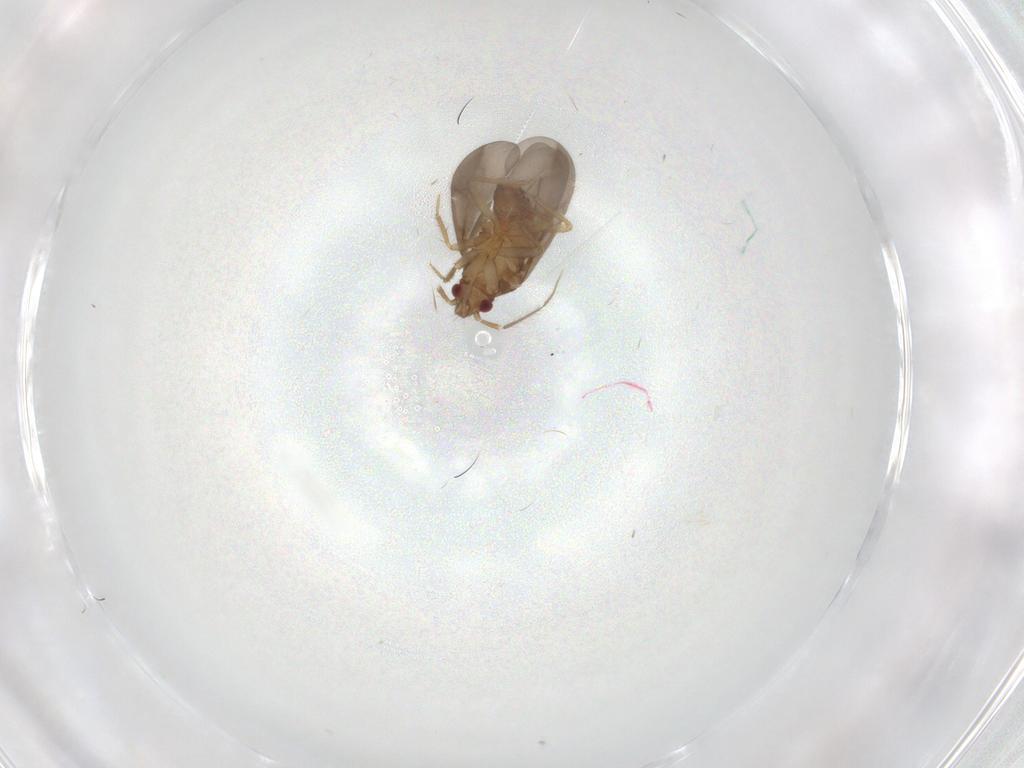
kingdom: Animalia
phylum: Arthropoda
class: Insecta
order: Hemiptera
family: Ceratocombidae
